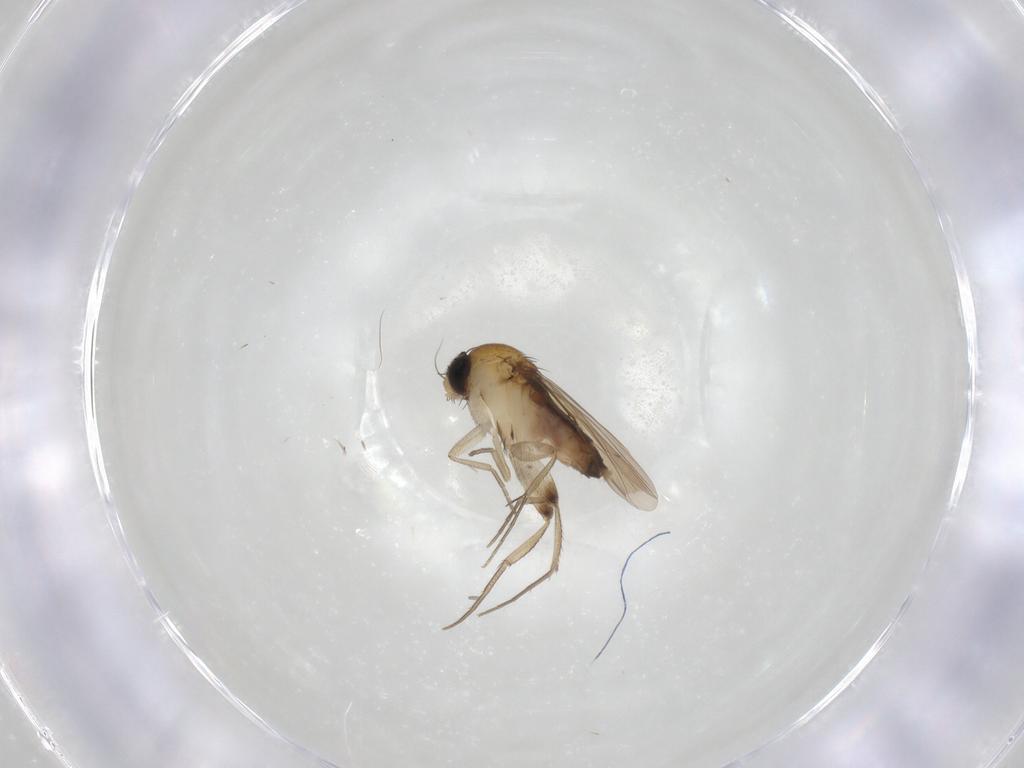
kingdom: Animalia
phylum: Arthropoda
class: Insecta
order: Diptera
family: Phoridae
